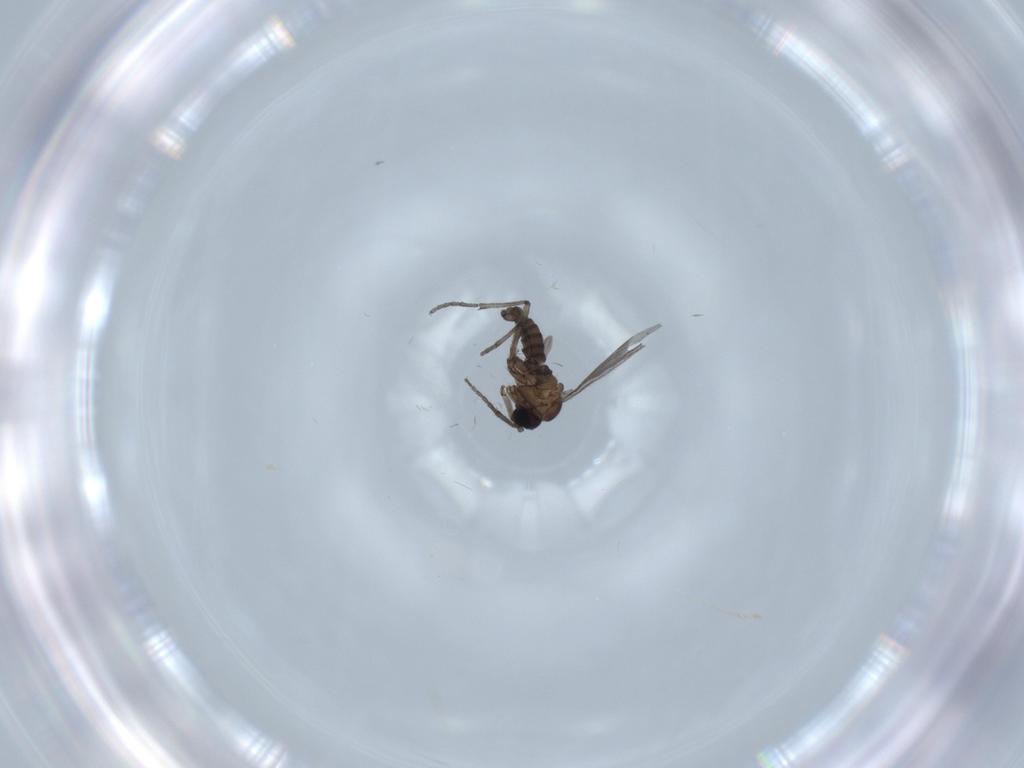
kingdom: Animalia
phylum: Arthropoda
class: Insecta
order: Diptera
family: Sciaridae
